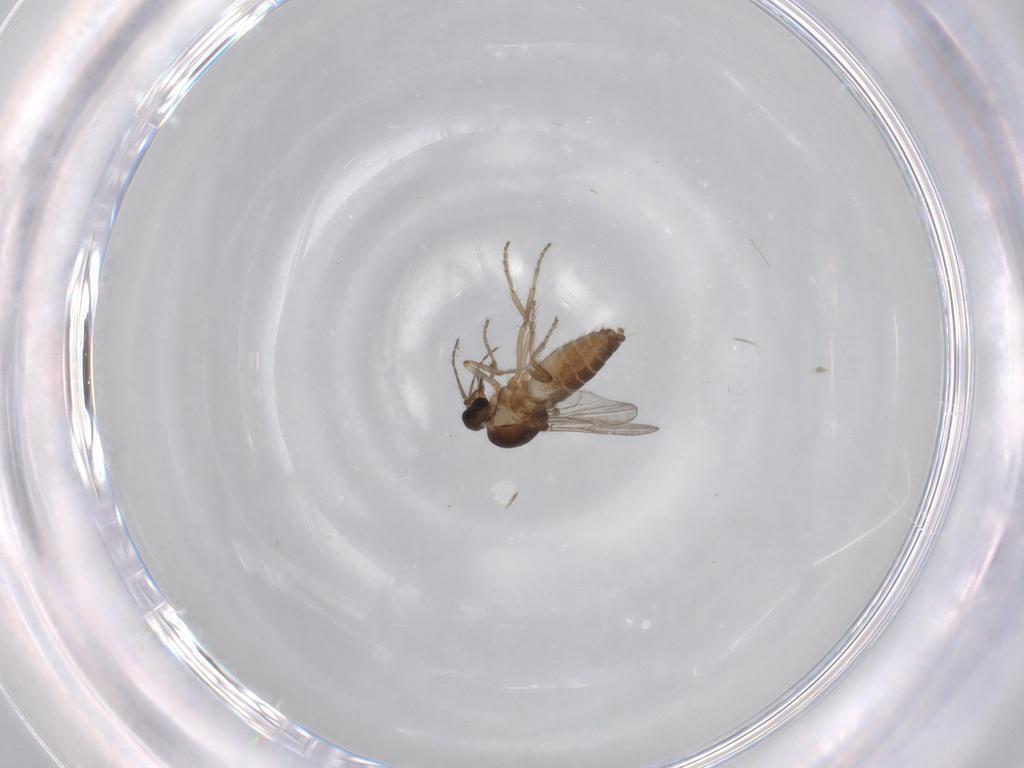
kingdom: Animalia
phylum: Arthropoda
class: Insecta
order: Diptera
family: Ceratopogonidae
